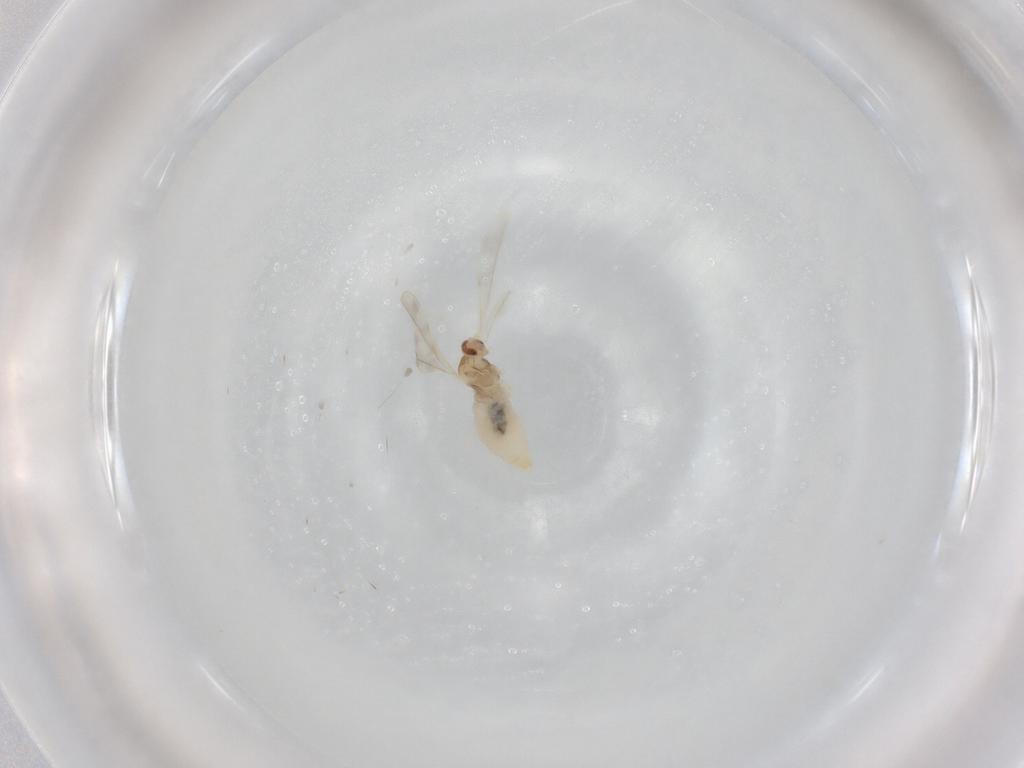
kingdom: Animalia
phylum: Arthropoda
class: Insecta
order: Diptera
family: Cecidomyiidae
